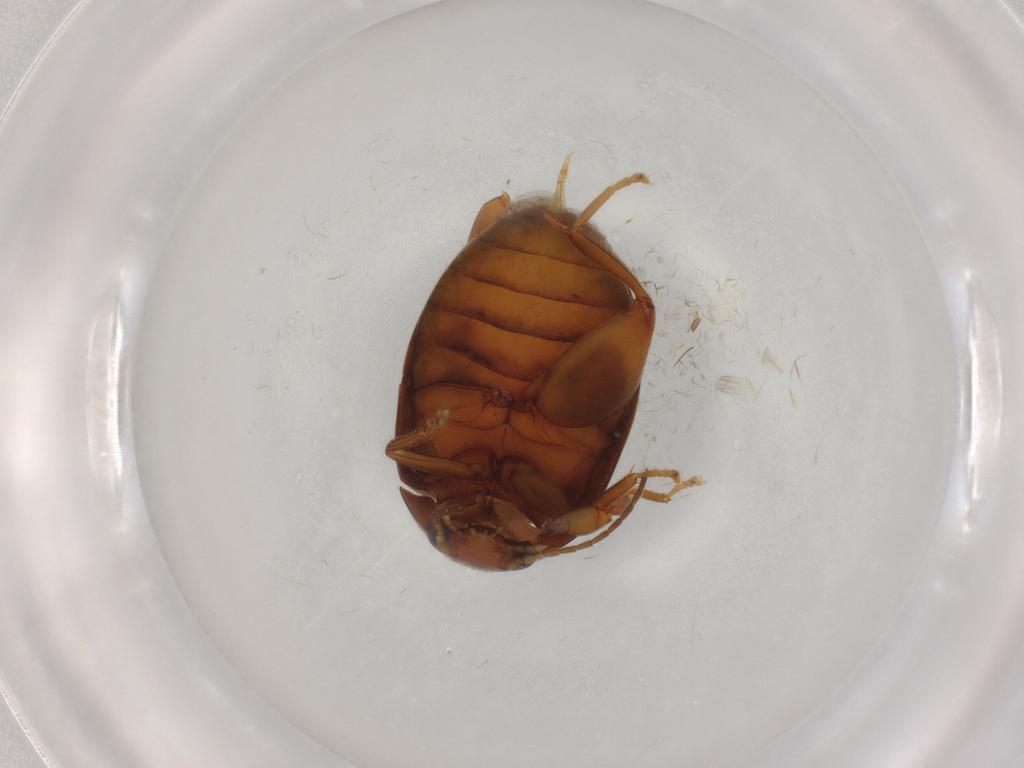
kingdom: Animalia
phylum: Arthropoda
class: Insecta
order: Coleoptera
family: Scirtidae
